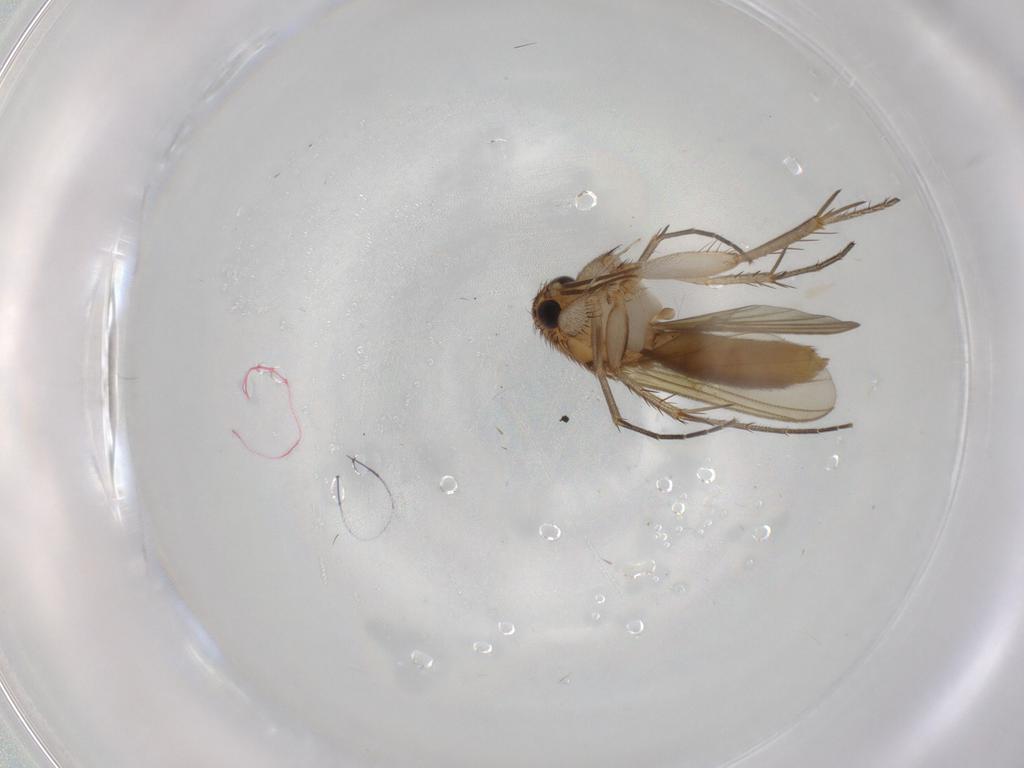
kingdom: Animalia
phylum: Arthropoda
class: Insecta
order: Diptera
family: Mycetophilidae
